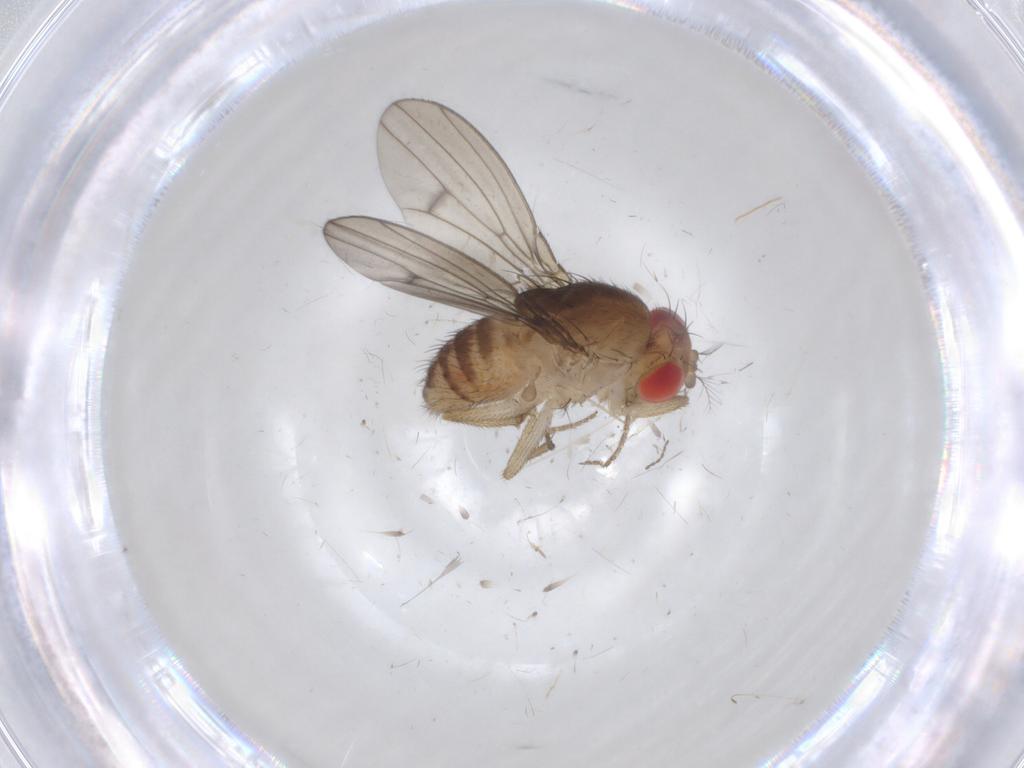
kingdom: Animalia
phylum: Arthropoda
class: Insecta
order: Diptera
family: Drosophilidae
